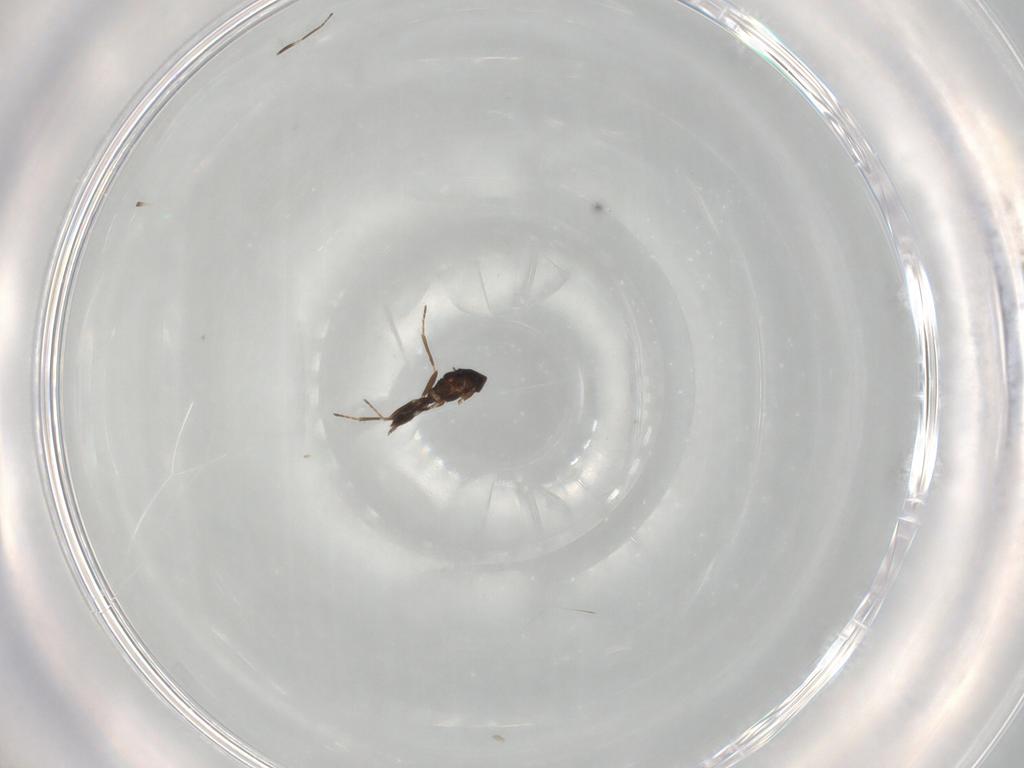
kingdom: Animalia
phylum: Arthropoda
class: Insecta
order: Hymenoptera
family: Eulophidae
